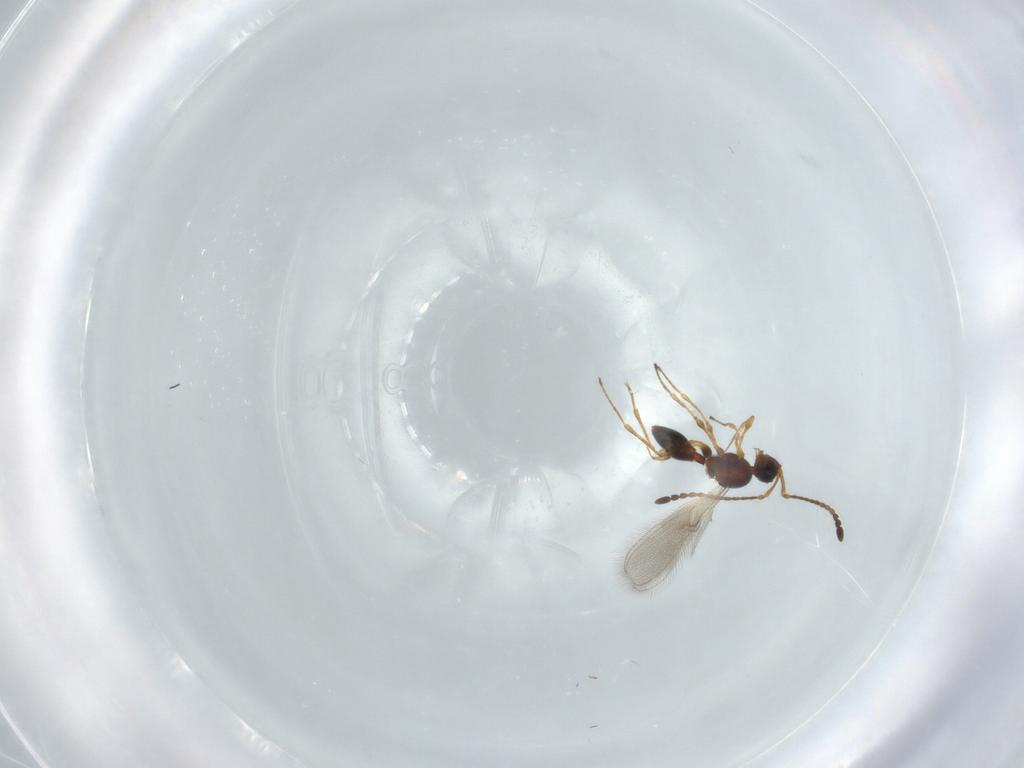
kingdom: Animalia
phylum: Arthropoda
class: Insecta
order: Hymenoptera
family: Diapriidae
